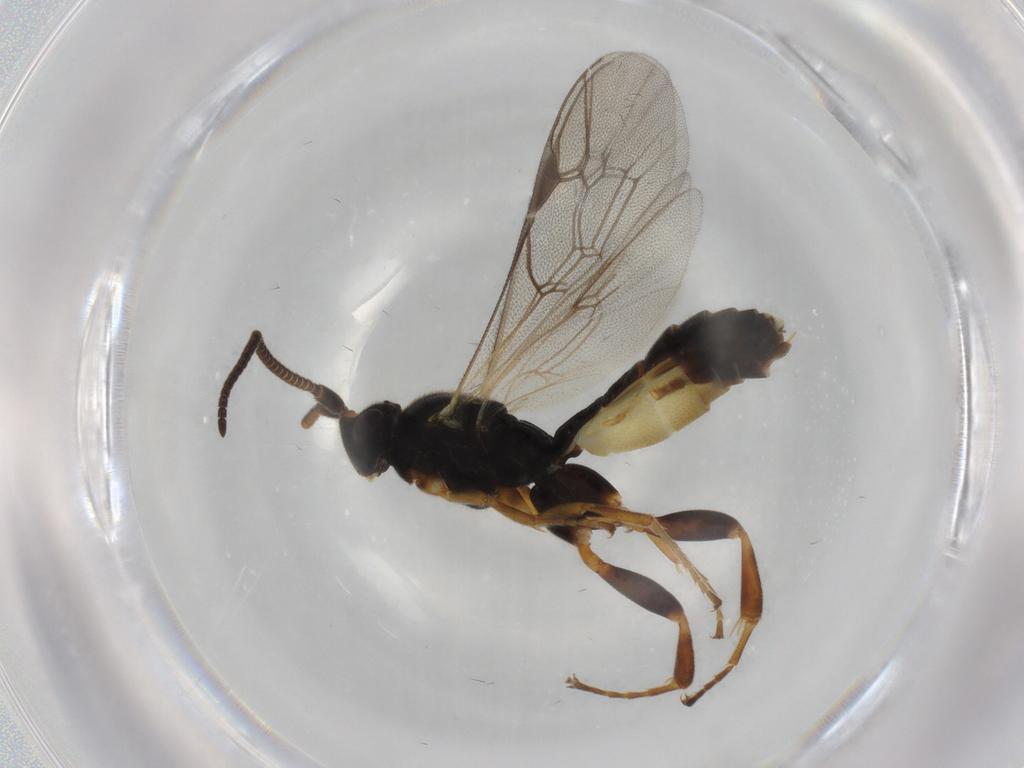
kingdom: Animalia
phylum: Arthropoda
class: Insecta
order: Hymenoptera
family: Ichneumonidae
